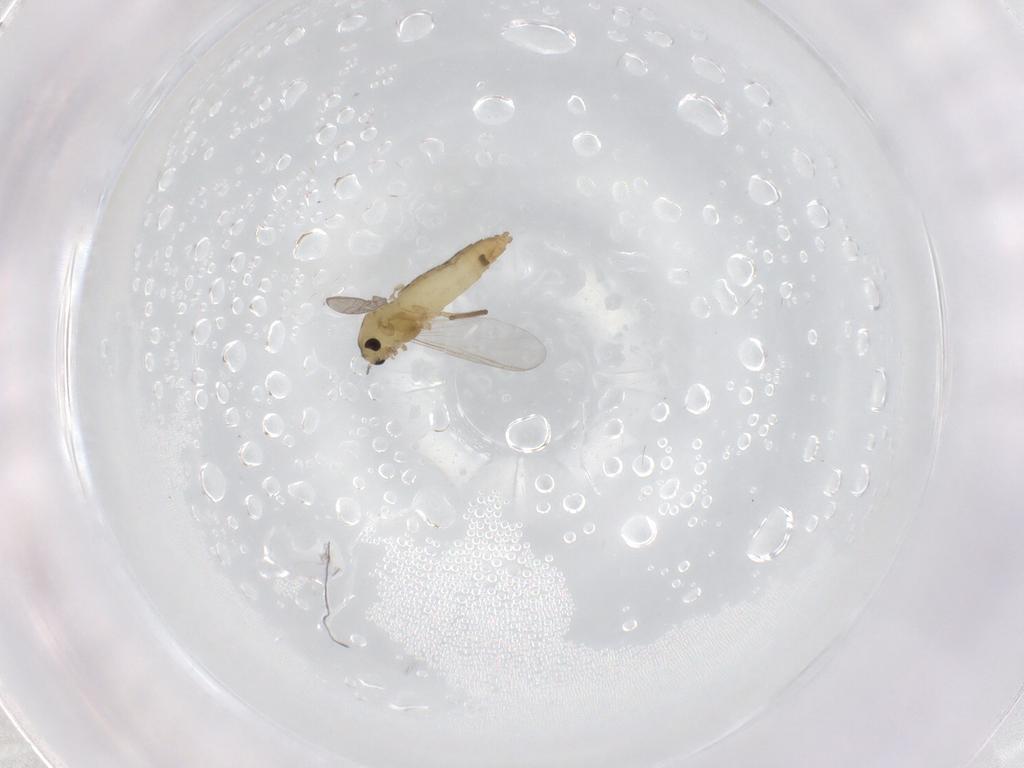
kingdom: Animalia
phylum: Arthropoda
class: Insecta
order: Diptera
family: Chironomidae
